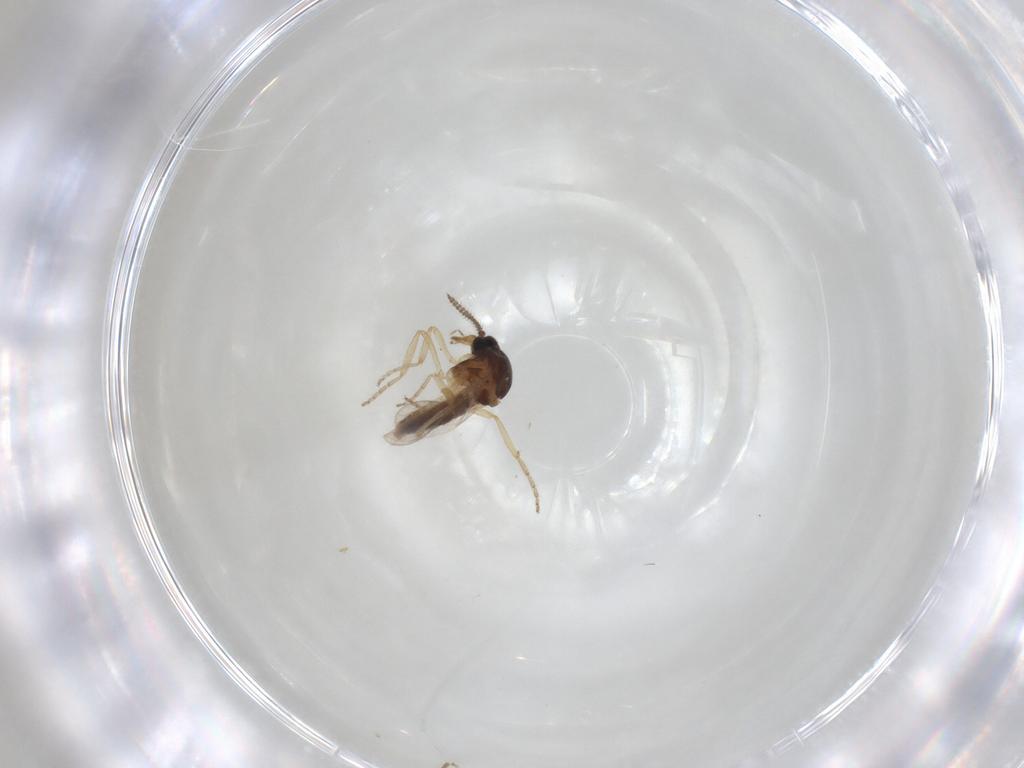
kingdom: Animalia
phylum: Arthropoda
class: Insecta
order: Diptera
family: Ceratopogonidae
